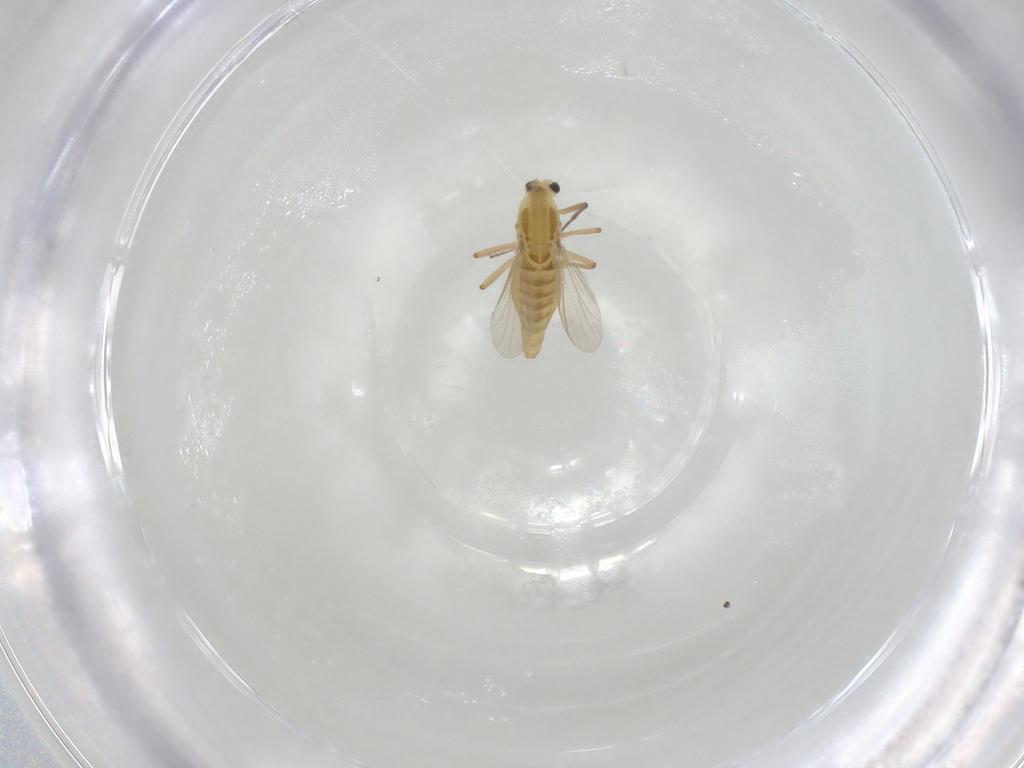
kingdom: Animalia
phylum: Arthropoda
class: Insecta
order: Diptera
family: Chironomidae
